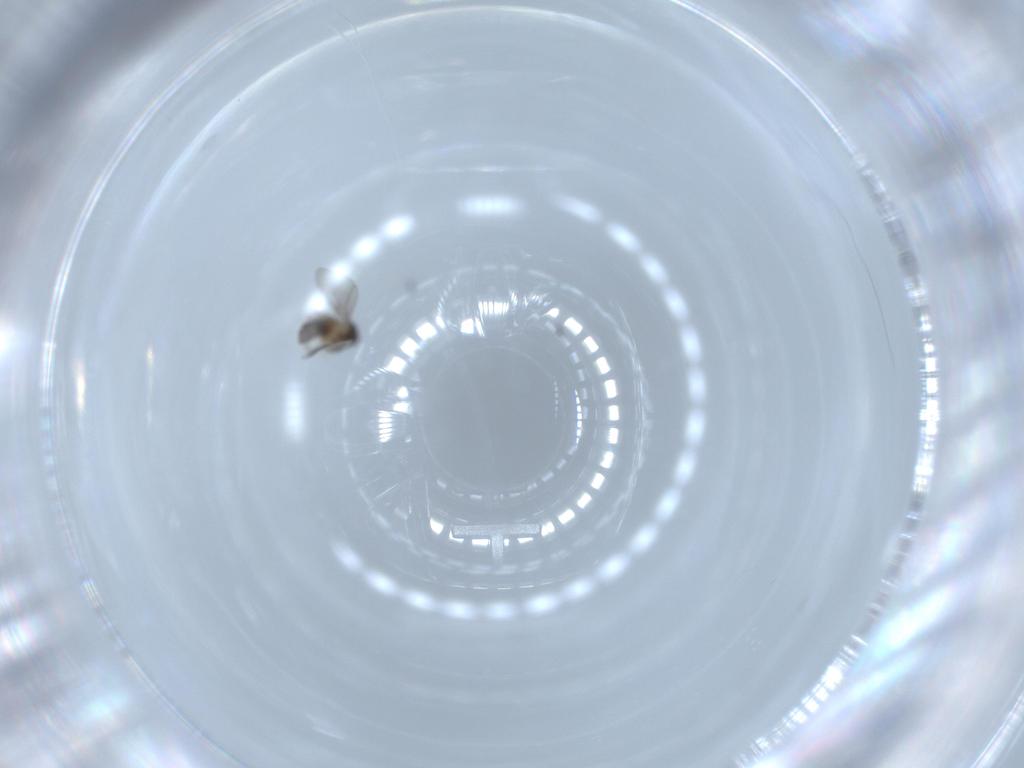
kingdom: Animalia
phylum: Arthropoda
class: Insecta
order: Diptera
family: Cecidomyiidae
